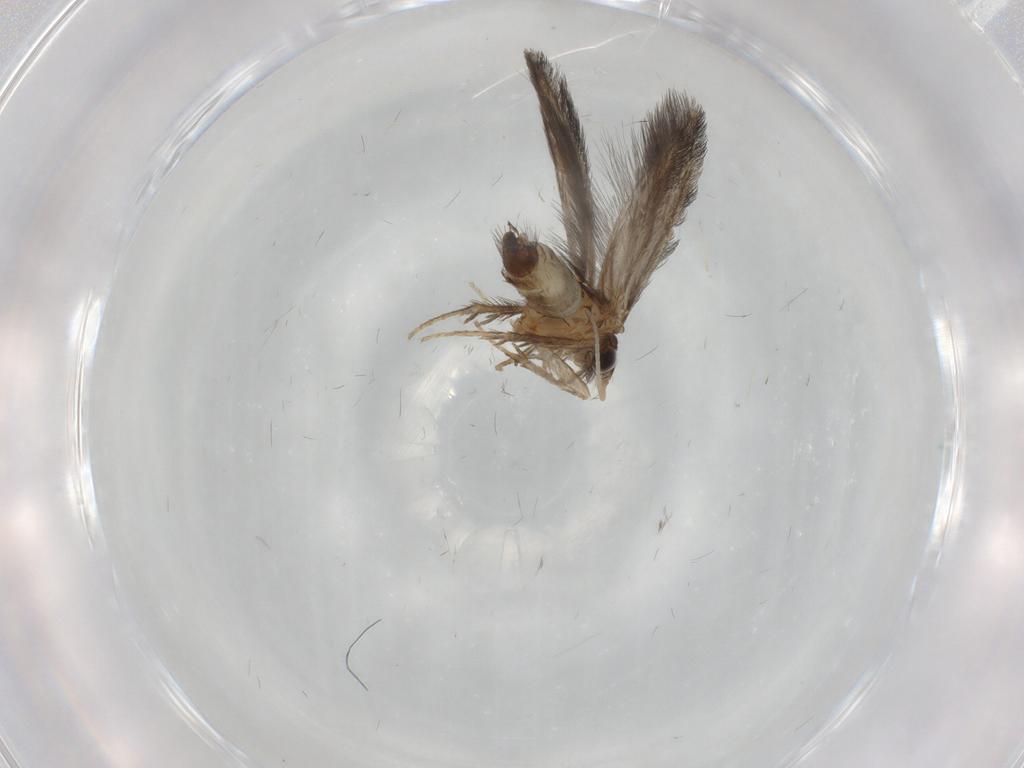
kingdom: Animalia
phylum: Arthropoda
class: Insecta
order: Trichoptera
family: Hydroptilidae
